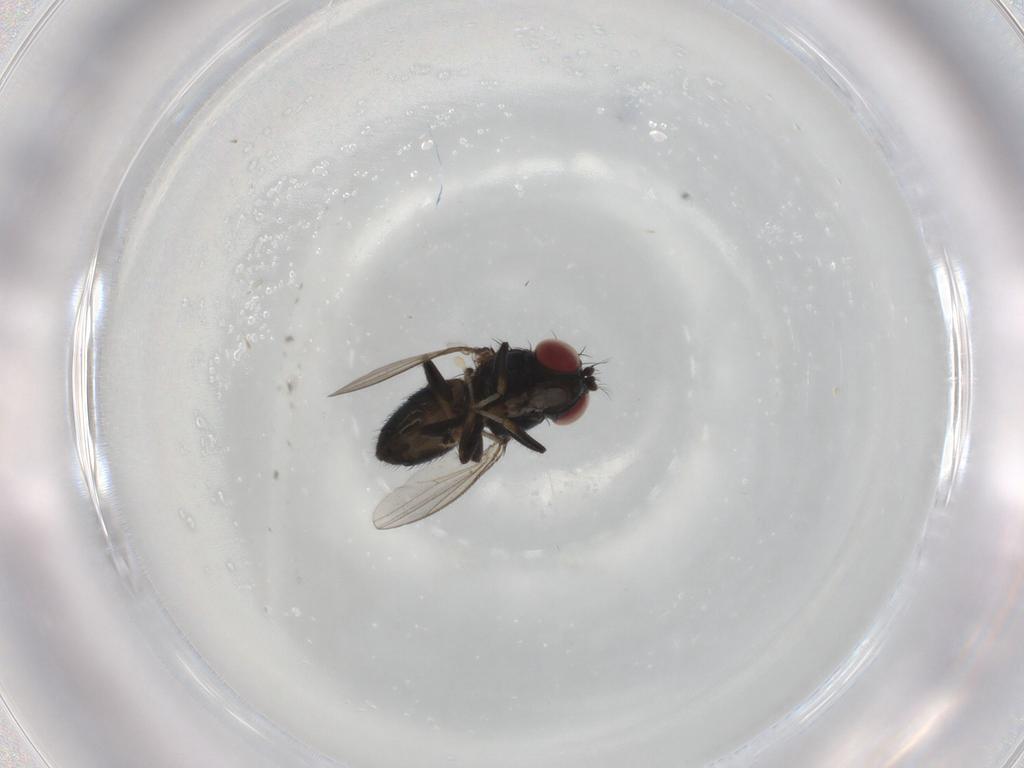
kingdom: Animalia
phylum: Arthropoda
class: Insecta
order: Diptera
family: Ephydridae
